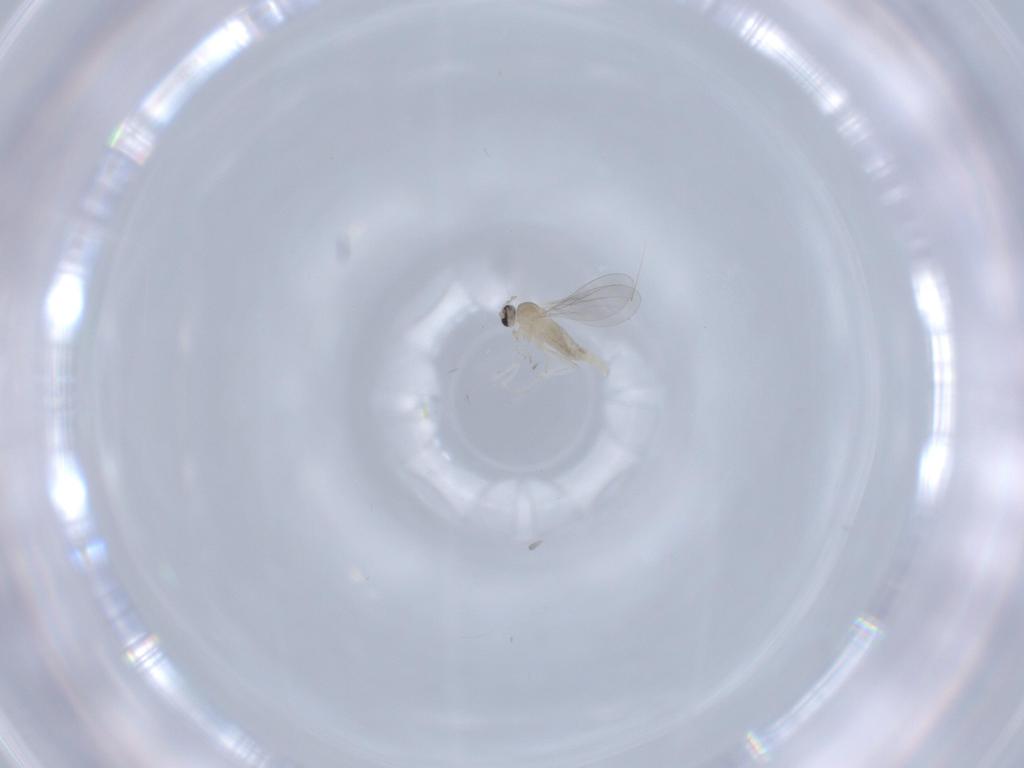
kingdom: Animalia
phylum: Arthropoda
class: Insecta
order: Diptera
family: Cecidomyiidae
